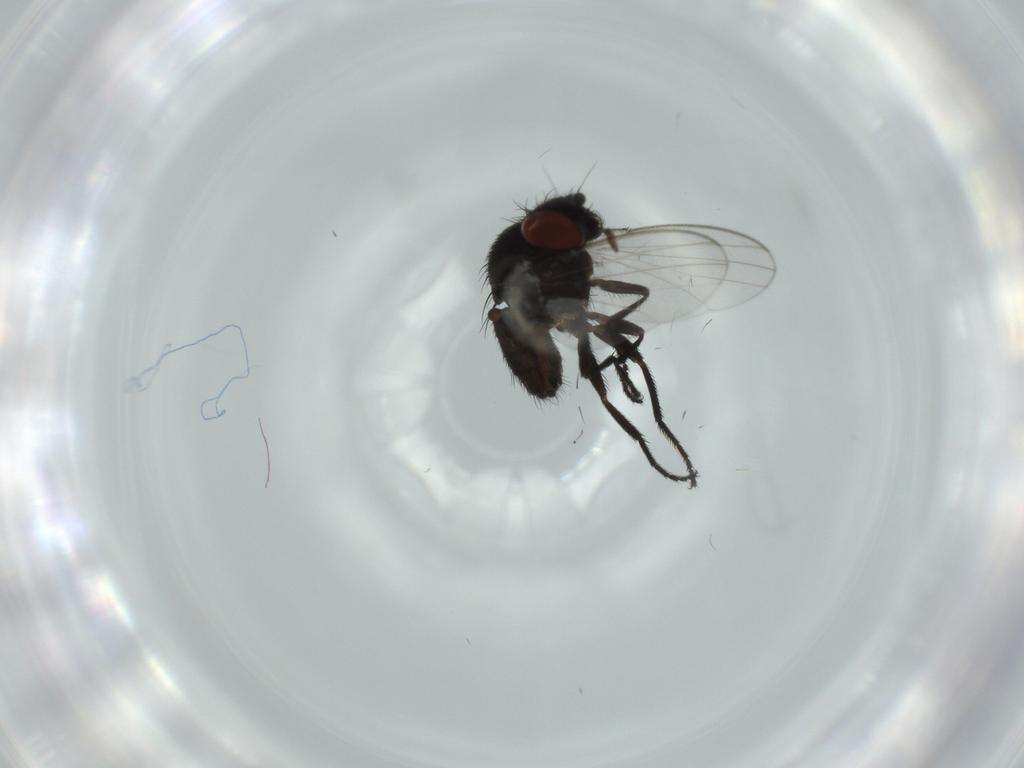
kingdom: Animalia
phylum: Arthropoda
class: Insecta
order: Diptera
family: Milichiidae
